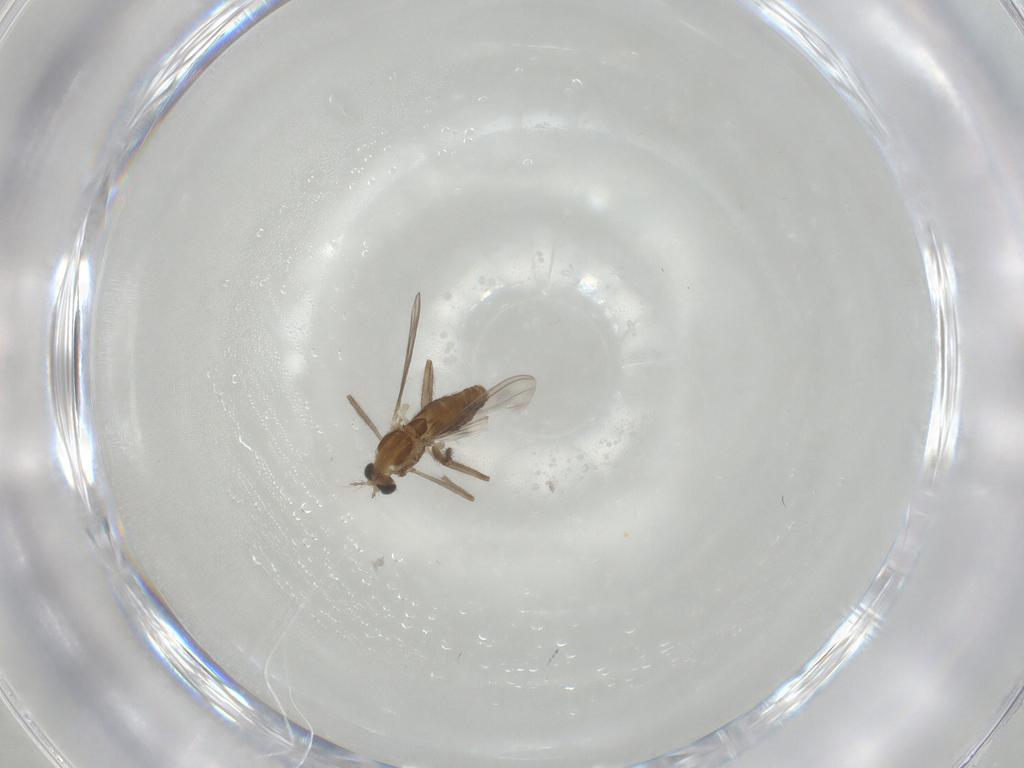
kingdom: Animalia
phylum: Arthropoda
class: Insecta
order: Diptera
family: Chironomidae
